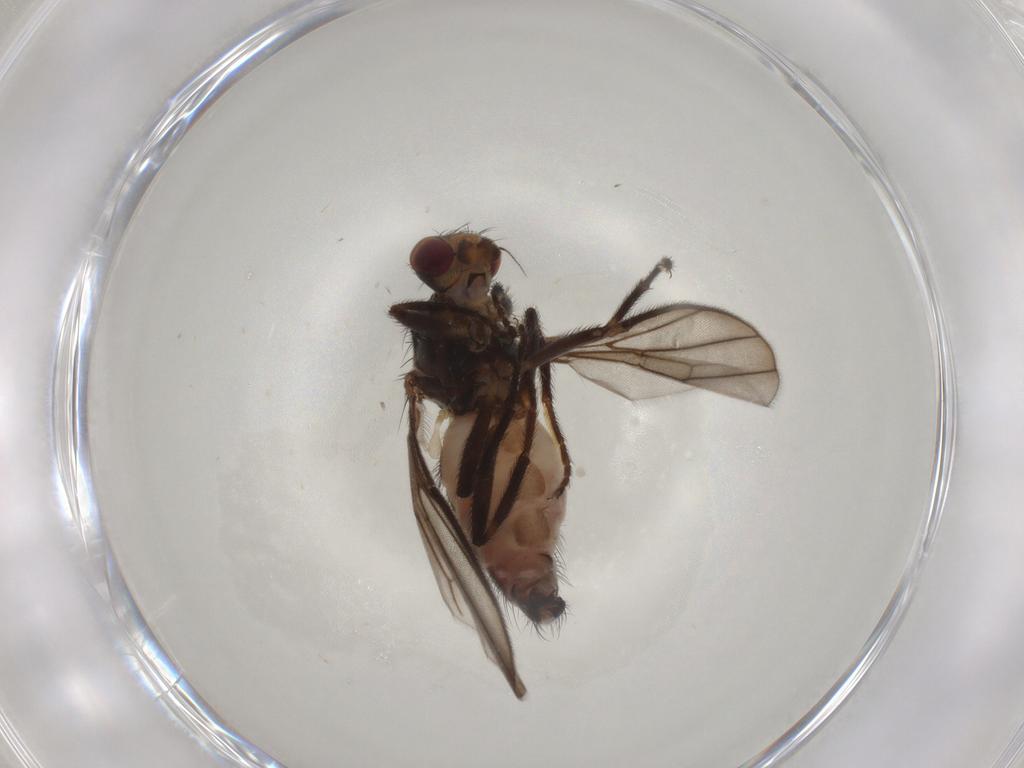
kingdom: Animalia
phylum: Arthropoda
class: Insecta
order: Diptera
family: Chloropidae
